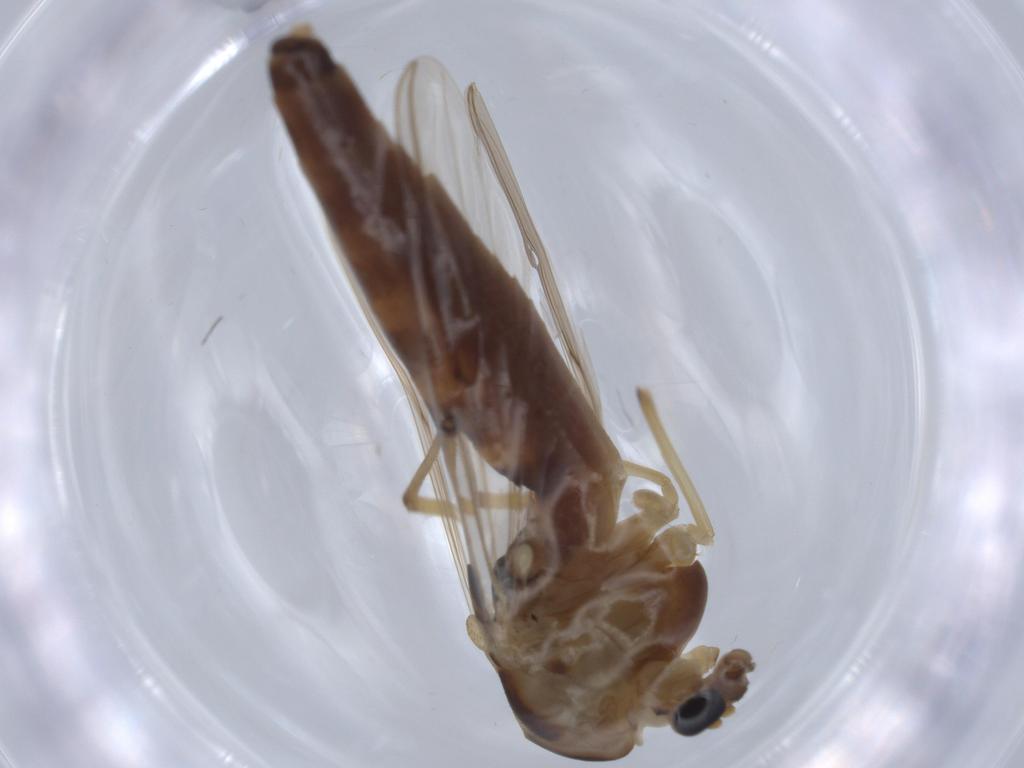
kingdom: Animalia
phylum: Arthropoda
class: Insecta
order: Diptera
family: Chironomidae
